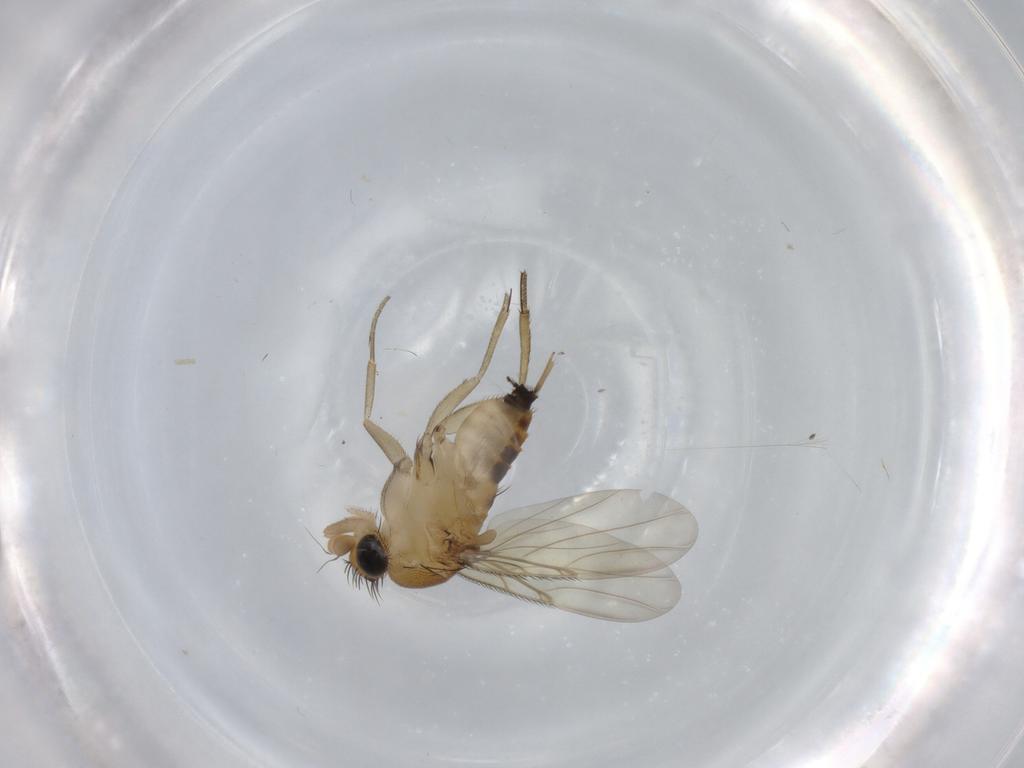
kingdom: Animalia
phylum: Arthropoda
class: Insecta
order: Diptera
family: Phoridae
